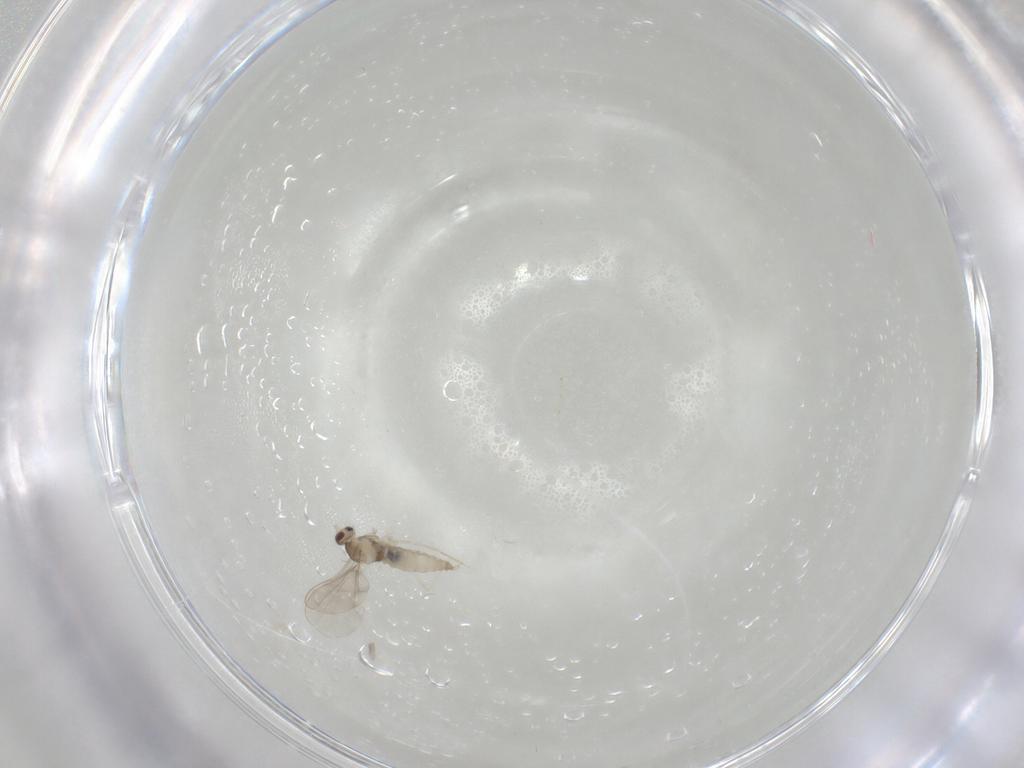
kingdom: Animalia
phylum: Arthropoda
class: Insecta
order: Diptera
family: Cecidomyiidae
